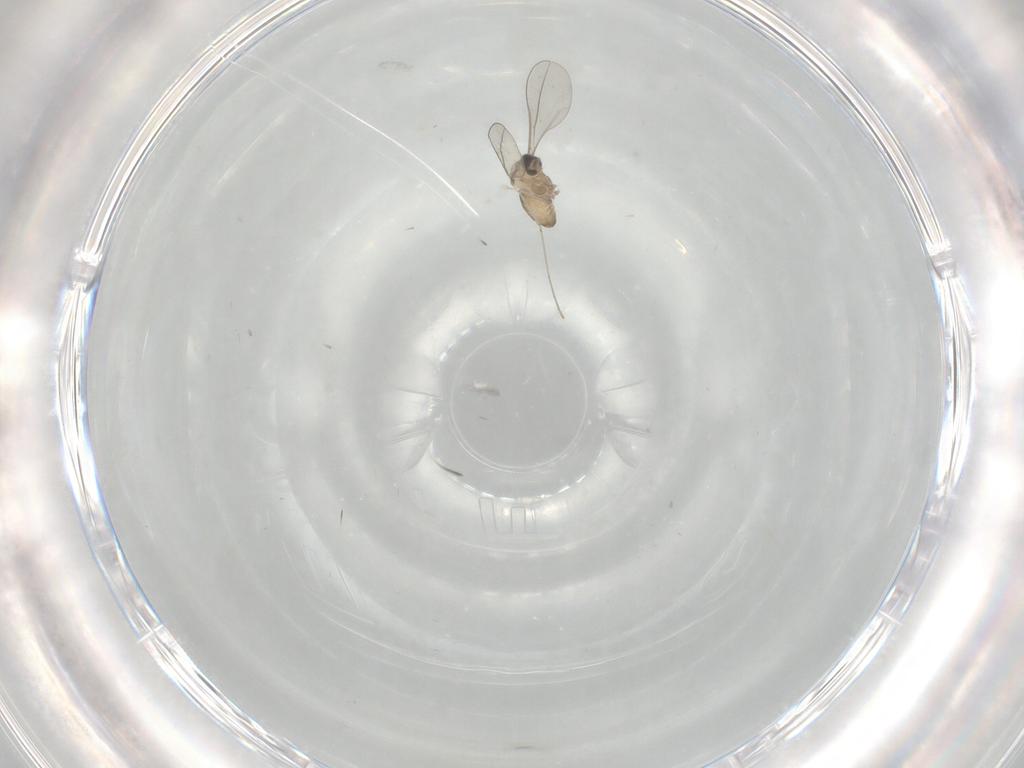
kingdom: Animalia
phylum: Arthropoda
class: Insecta
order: Diptera
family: Cecidomyiidae
